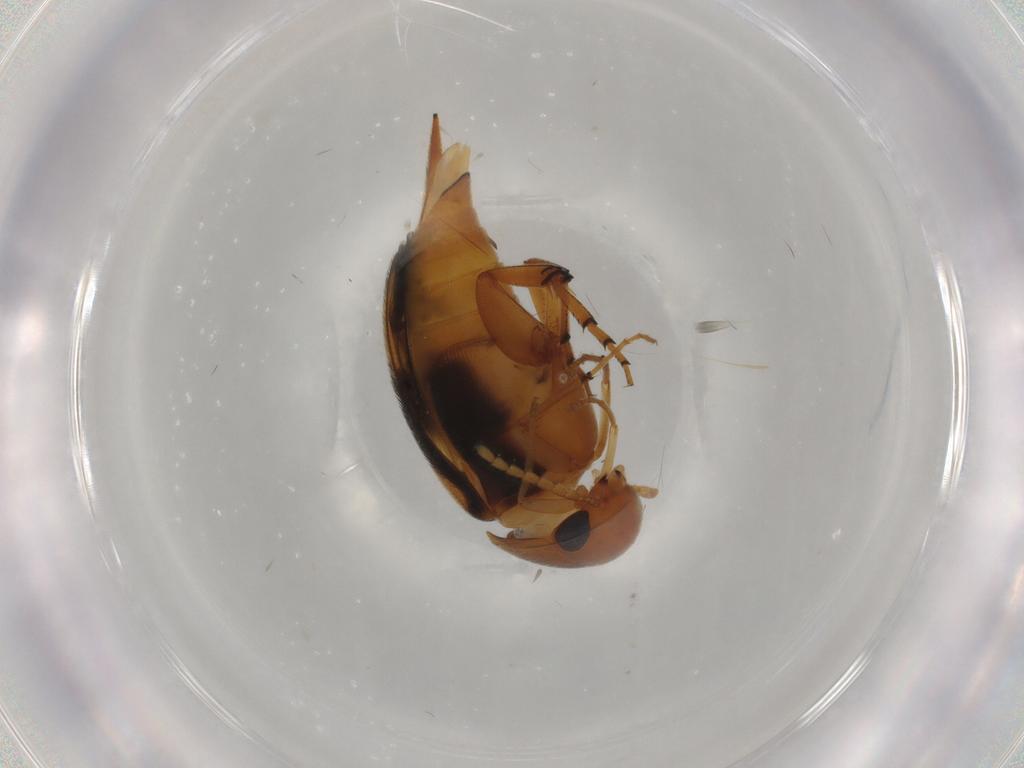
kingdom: Animalia
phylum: Arthropoda
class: Insecta
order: Coleoptera
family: Mordellidae
